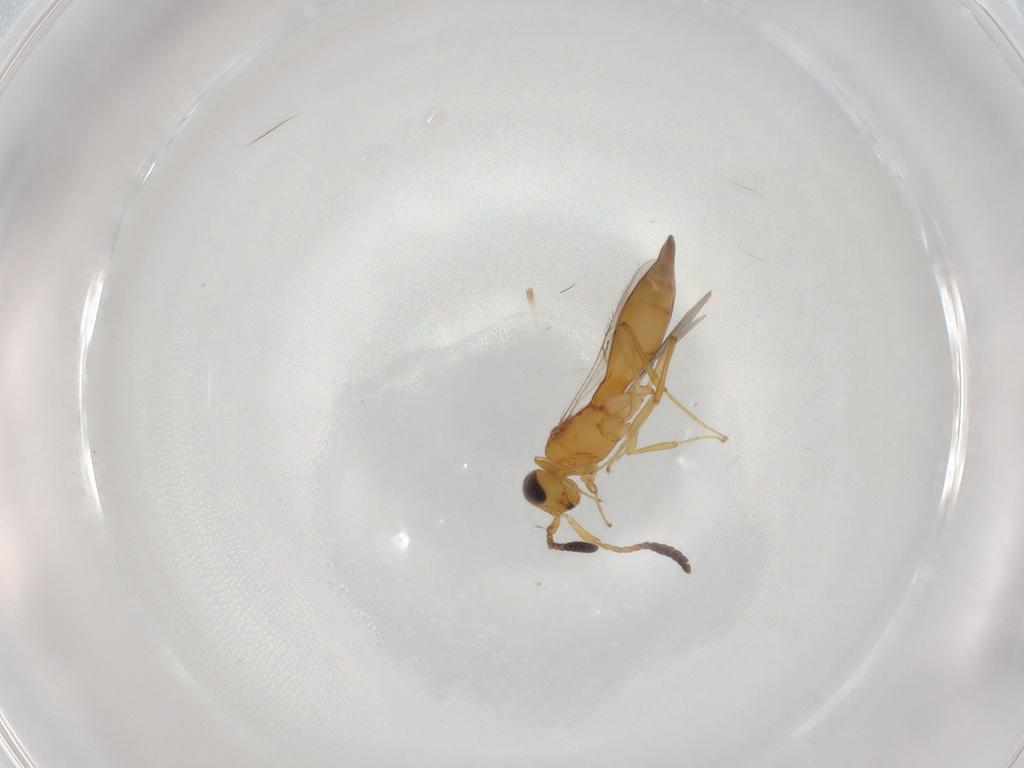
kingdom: Animalia
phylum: Arthropoda
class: Insecta
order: Hymenoptera
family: Scelionidae
